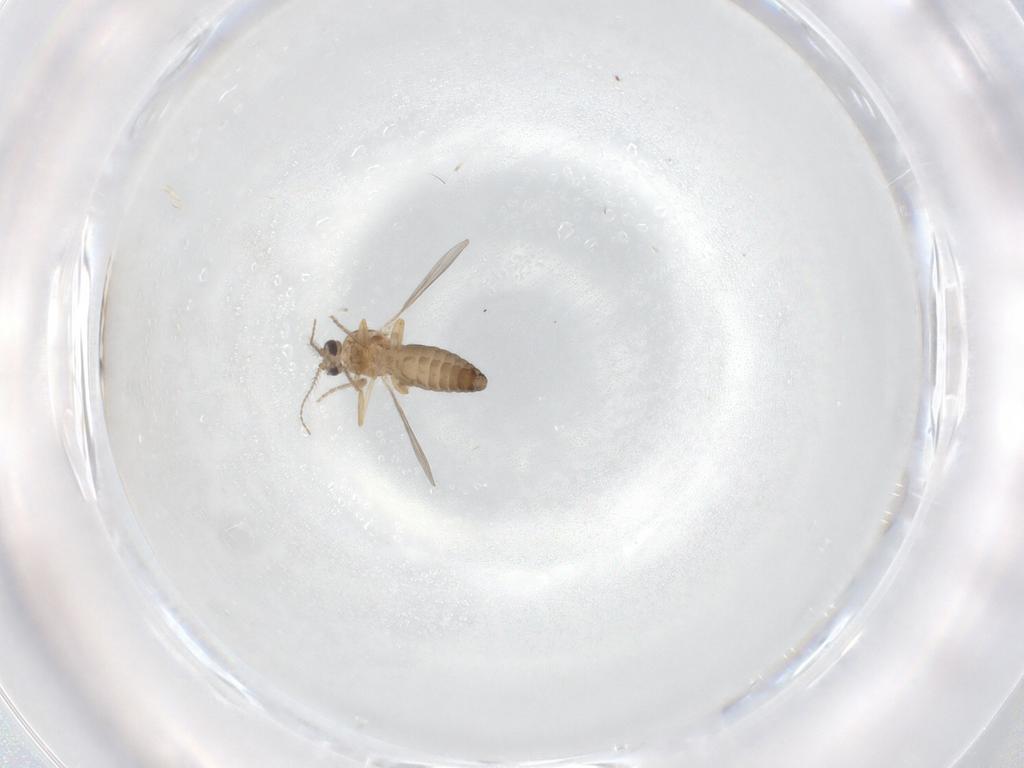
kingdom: Animalia
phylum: Arthropoda
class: Insecta
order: Diptera
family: Ceratopogonidae
